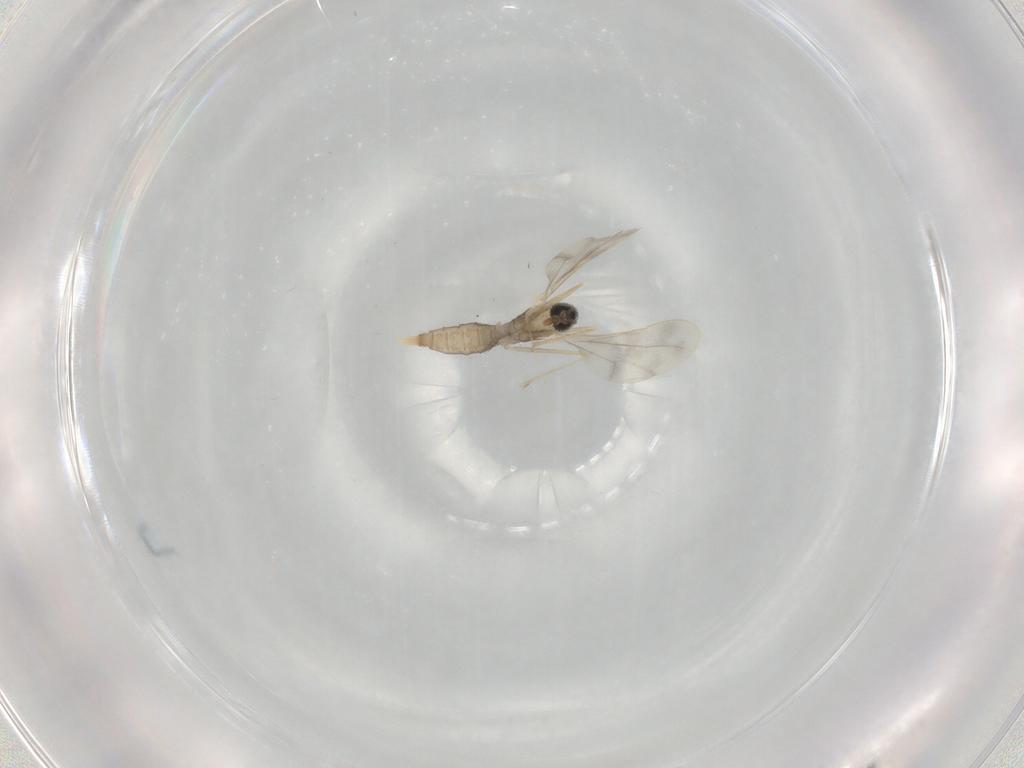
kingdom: Animalia
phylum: Arthropoda
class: Insecta
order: Diptera
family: Cecidomyiidae
